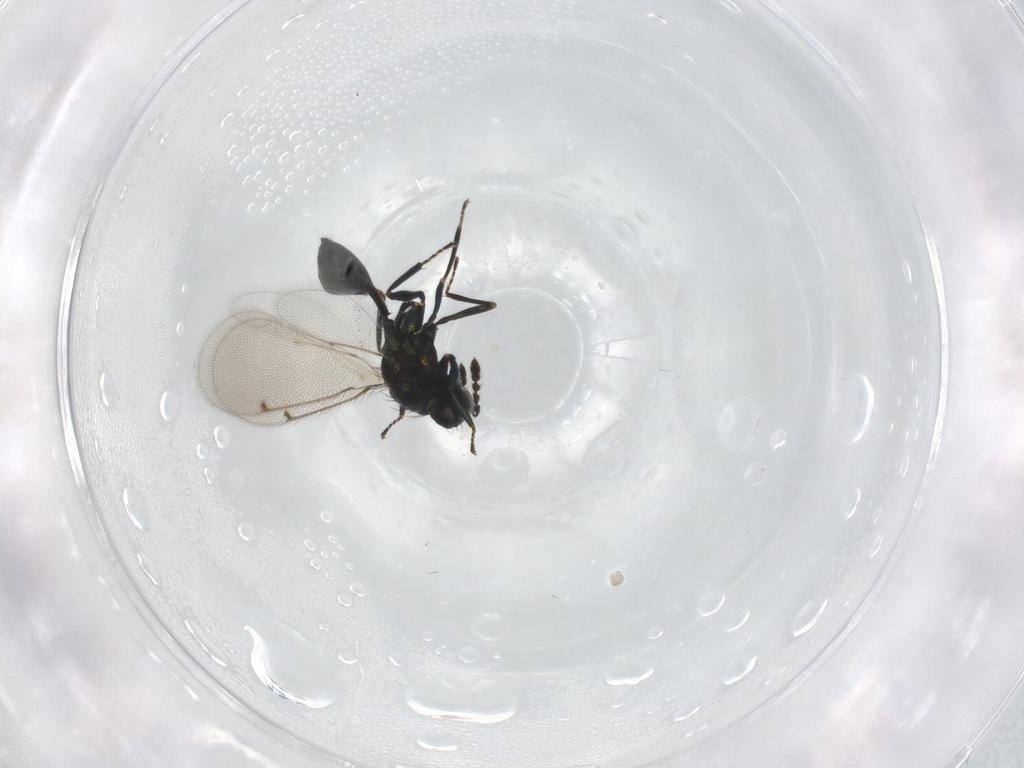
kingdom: Animalia
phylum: Arthropoda
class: Insecta
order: Hymenoptera
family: Eulophidae
